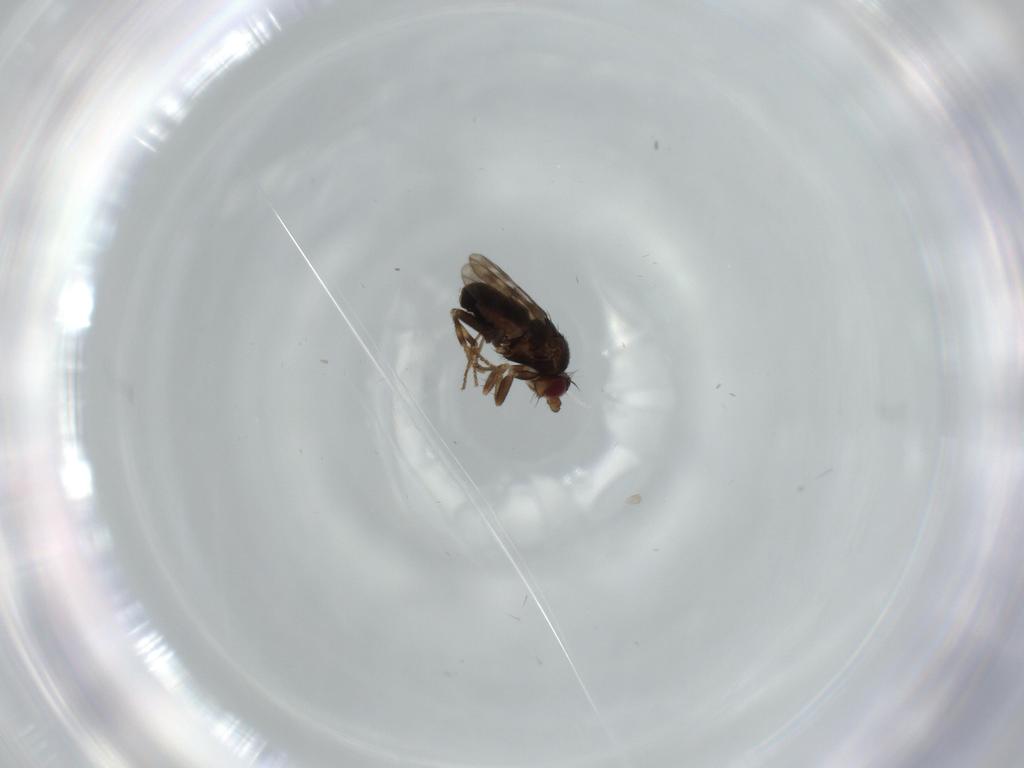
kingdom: Animalia
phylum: Arthropoda
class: Insecta
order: Diptera
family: Sphaeroceridae
